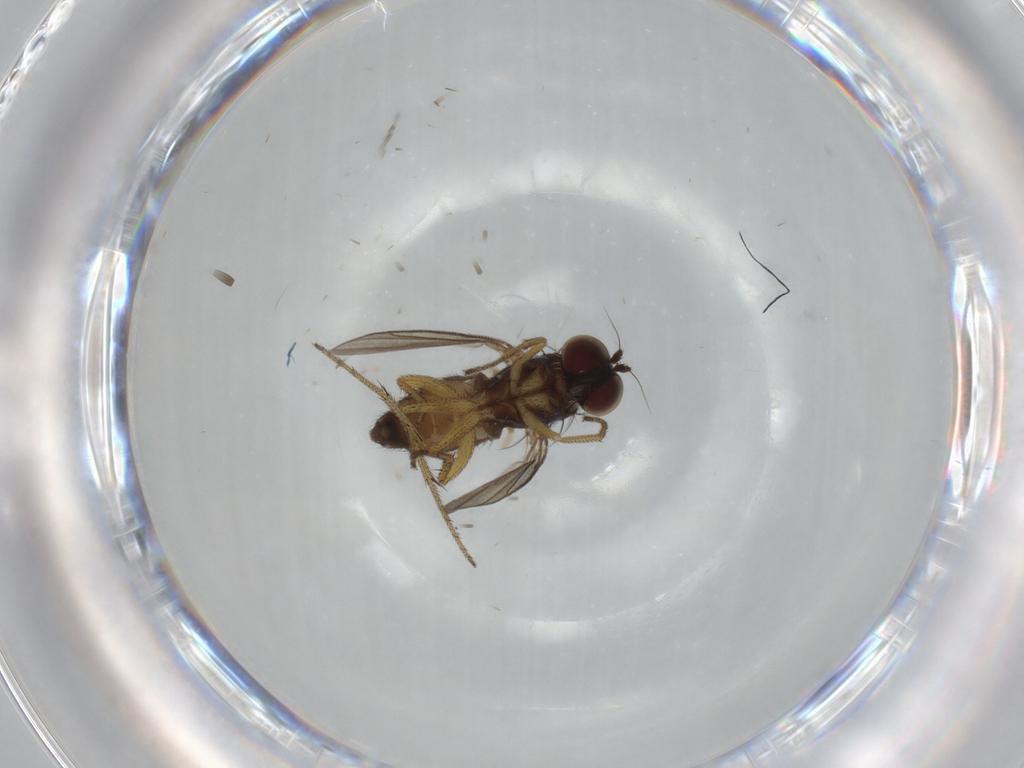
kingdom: Animalia
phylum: Arthropoda
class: Insecta
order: Diptera
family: Dolichopodidae
